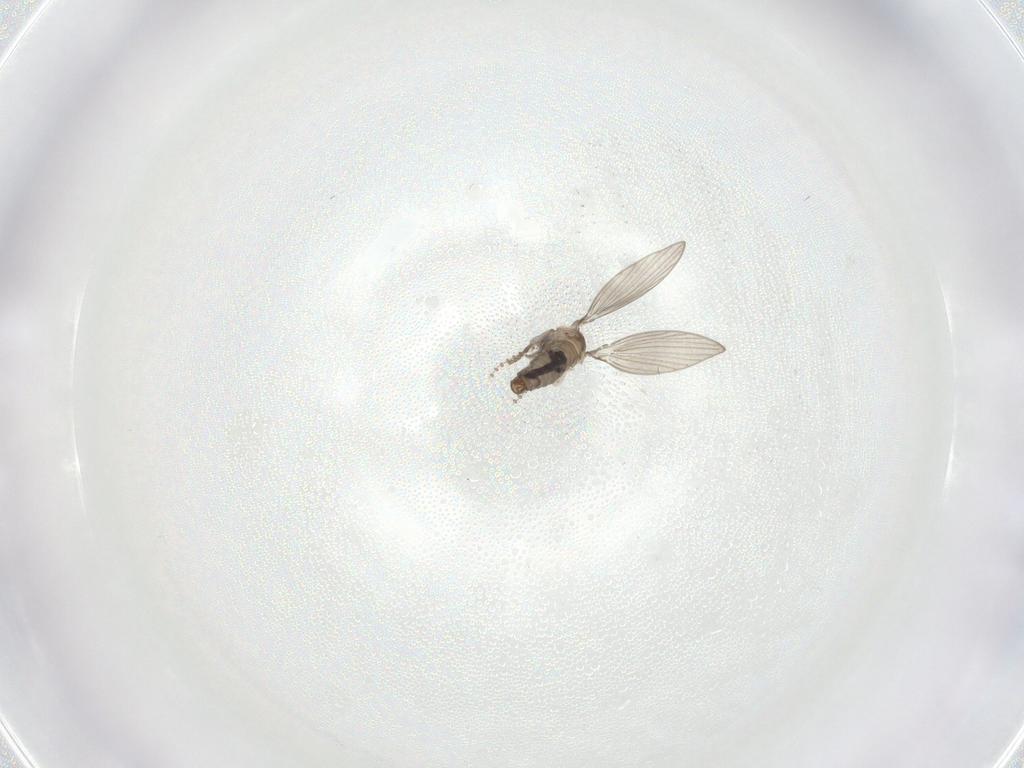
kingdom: Animalia
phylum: Arthropoda
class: Insecta
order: Diptera
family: Psychodidae
